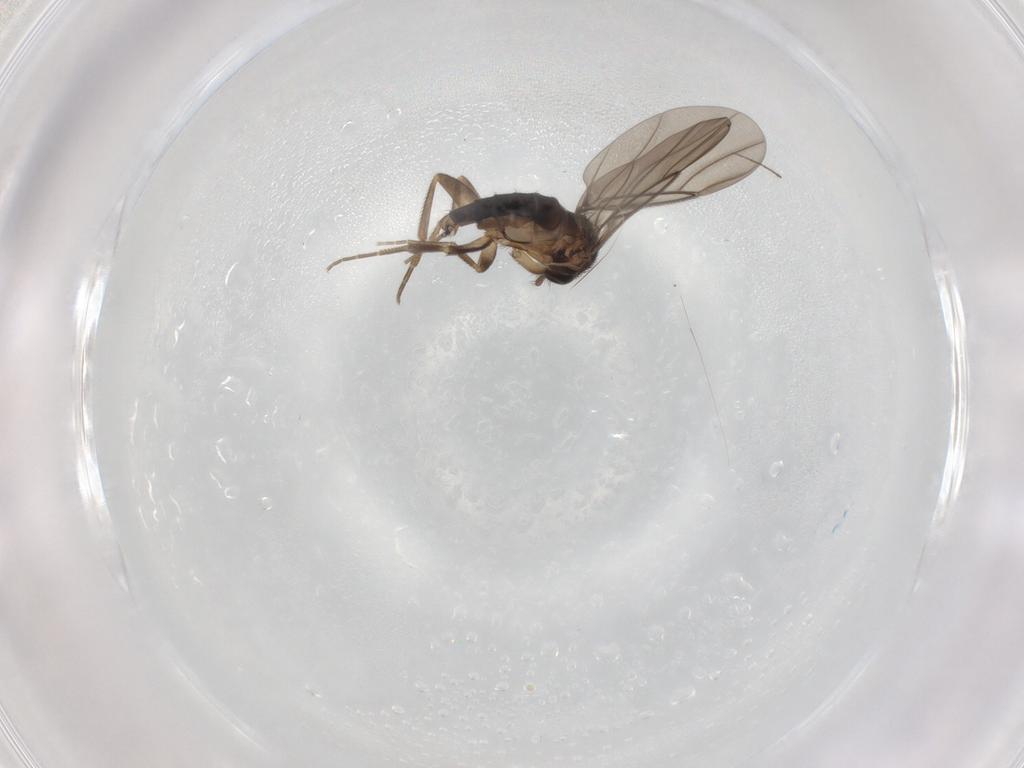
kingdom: Animalia
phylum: Arthropoda
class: Insecta
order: Diptera
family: Phoridae
